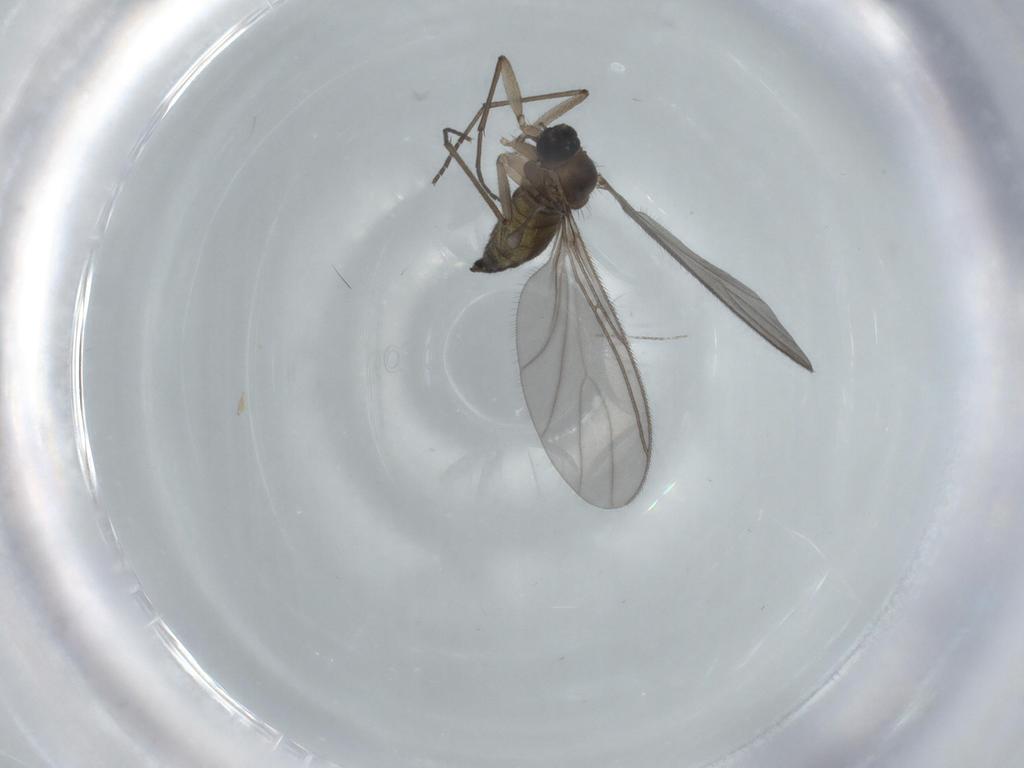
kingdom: Animalia
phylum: Arthropoda
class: Insecta
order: Diptera
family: Sciaridae
